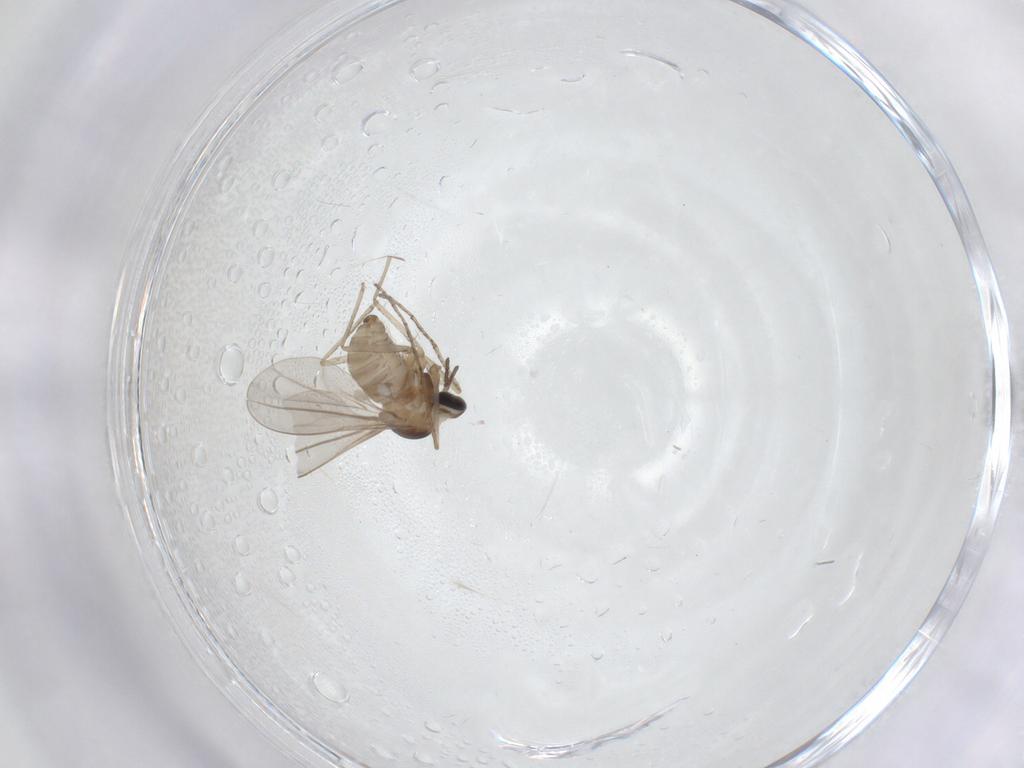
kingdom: Animalia
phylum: Arthropoda
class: Insecta
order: Diptera
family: Cecidomyiidae
